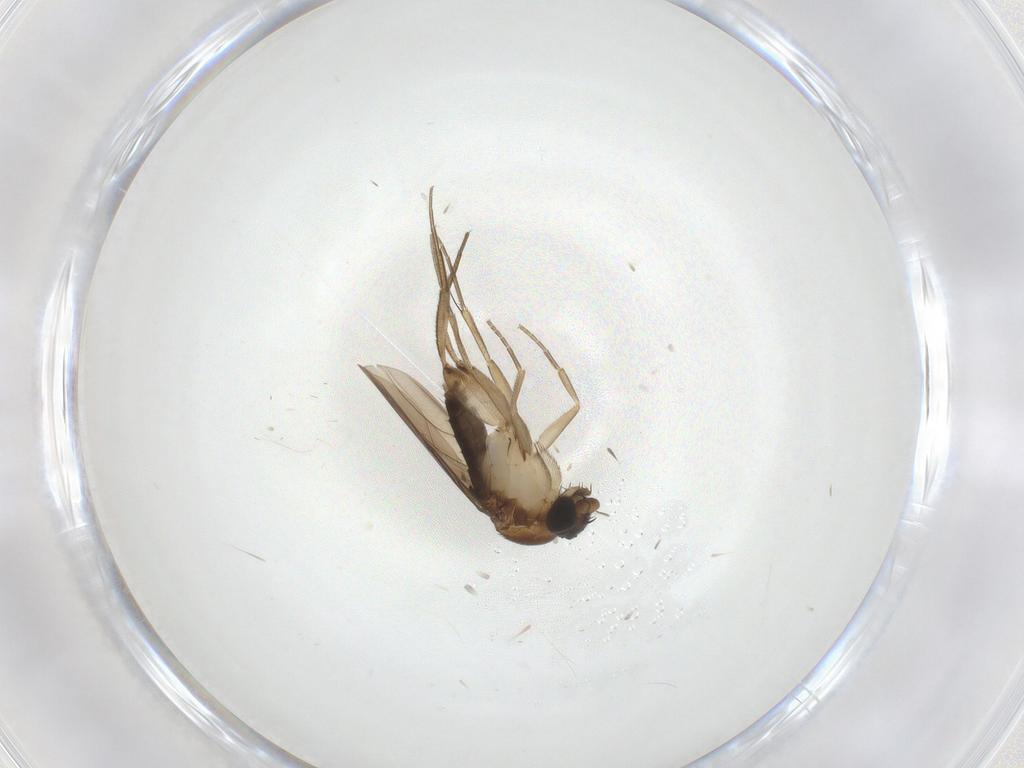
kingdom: Animalia
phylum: Arthropoda
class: Insecta
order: Diptera
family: Phoridae
